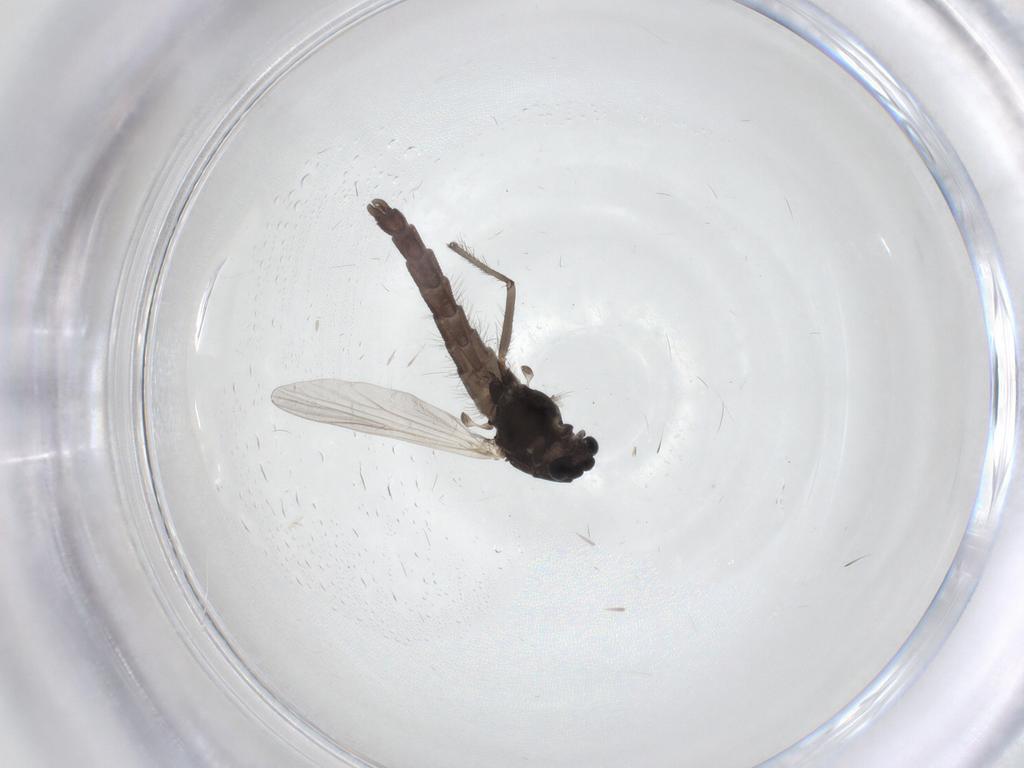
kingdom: Animalia
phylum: Arthropoda
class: Insecta
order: Diptera
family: Chironomidae
